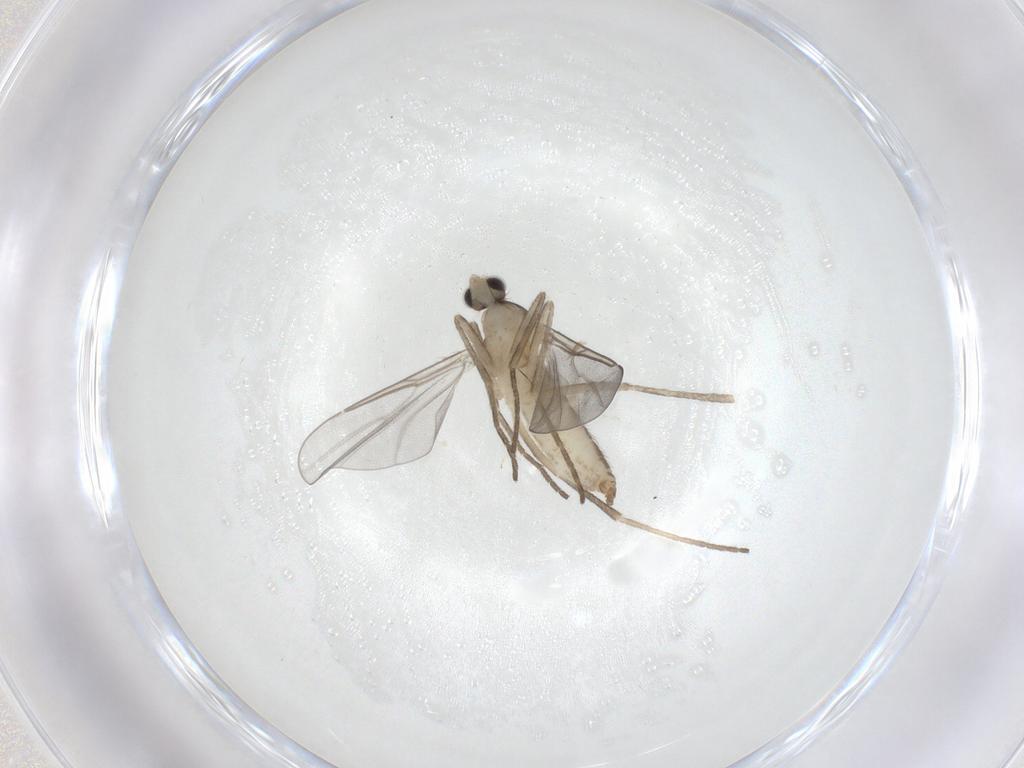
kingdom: Animalia
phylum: Arthropoda
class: Insecta
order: Diptera
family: Cecidomyiidae
